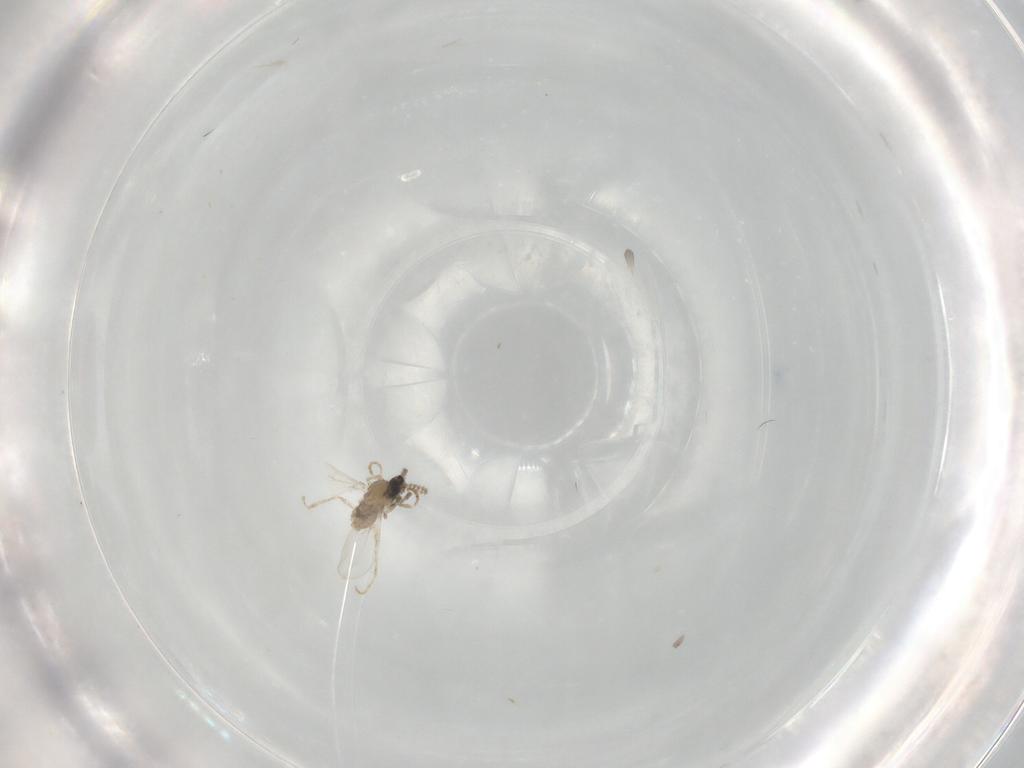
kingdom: Animalia
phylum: Arthropoda
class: Insecta
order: Diptera
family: Cecidomyiidae
